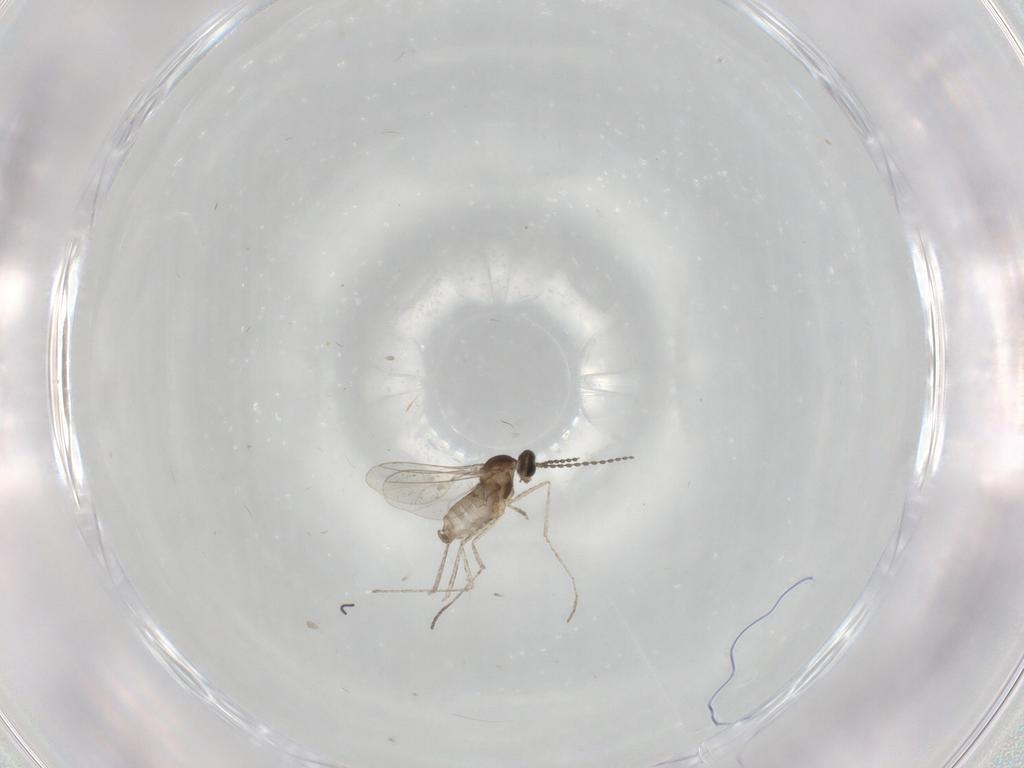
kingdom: Animalia
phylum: Arthropoda
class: Insecta
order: Diptera
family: Cecidomyiidae
